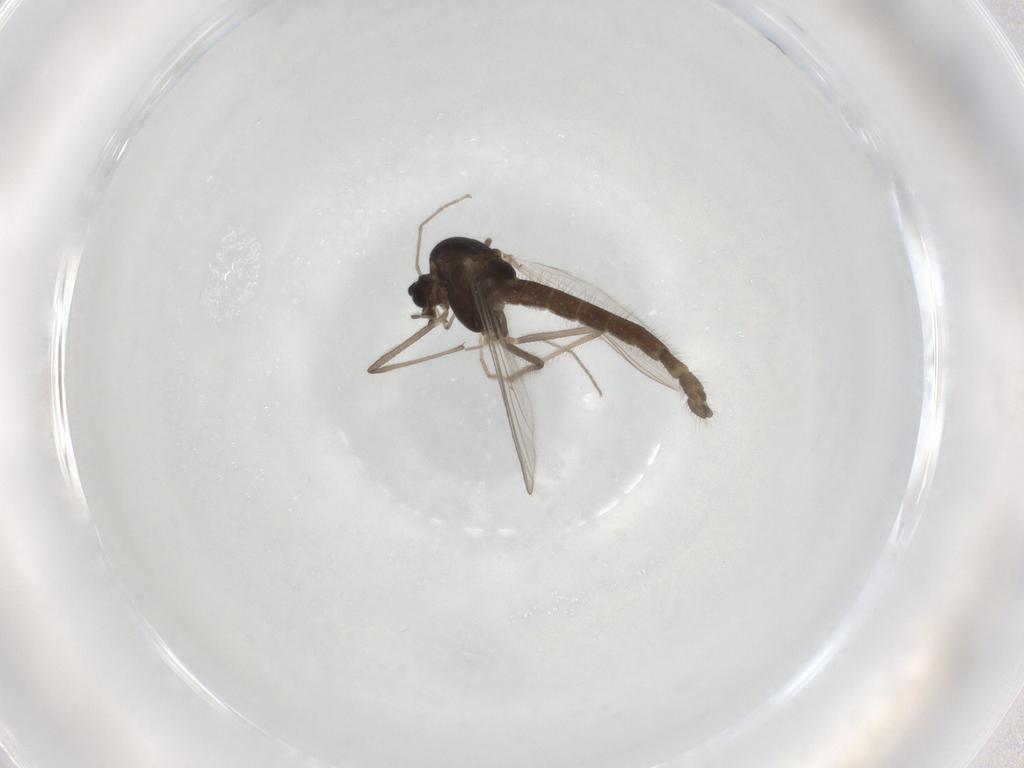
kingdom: Animalia
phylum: Arthropoda
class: Insecta
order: Diptera
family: Chironomidae
